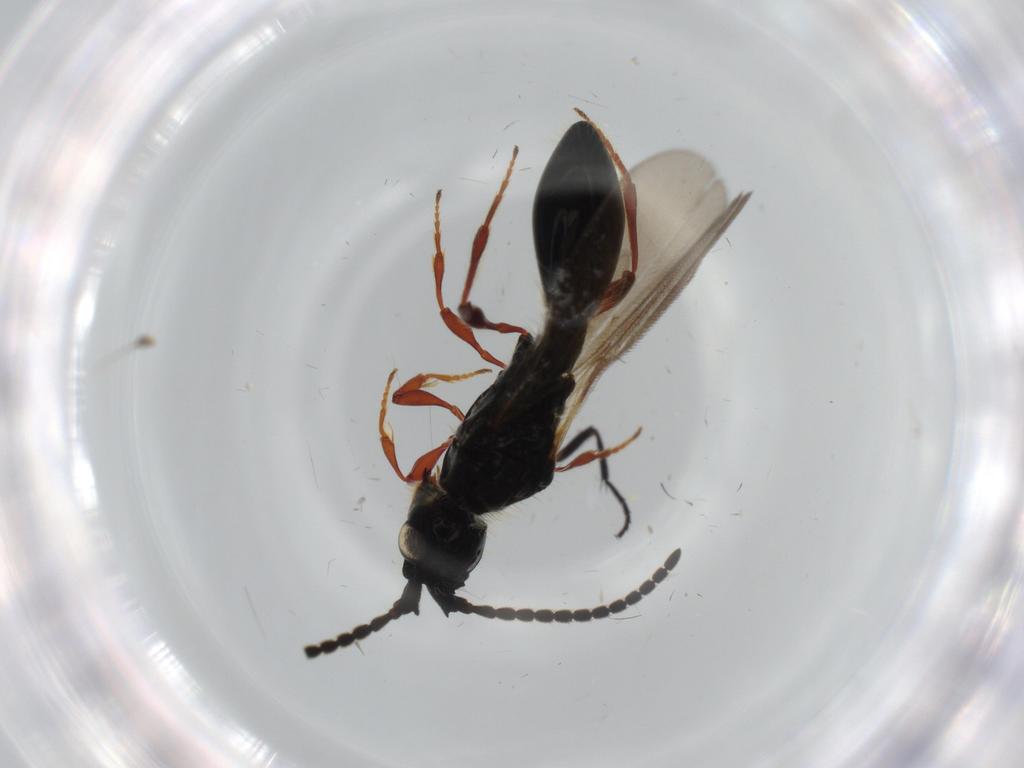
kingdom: Animalia
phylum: Arthropoda
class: Insecta
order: Hymenoptera
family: Diapriidae
